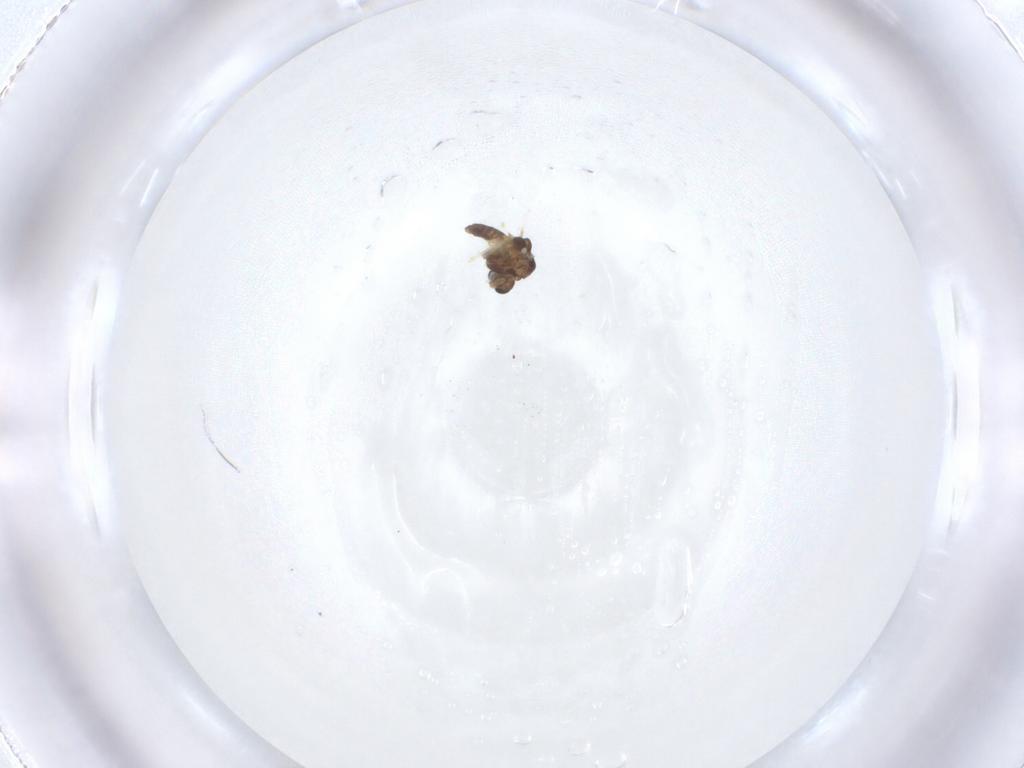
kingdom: Animalia
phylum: Arthropoda
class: Insecta
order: Diptera
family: Chironomidae
